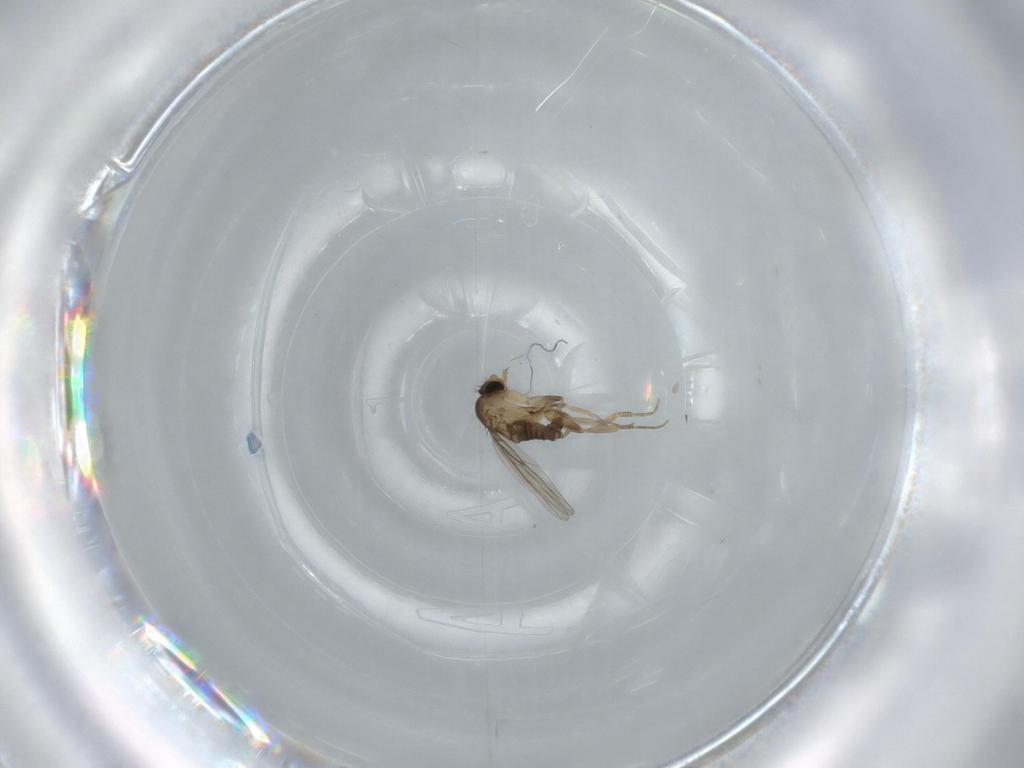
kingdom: Animalia
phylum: Arthropoda
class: Insecta
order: Diptera
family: Phoridae
